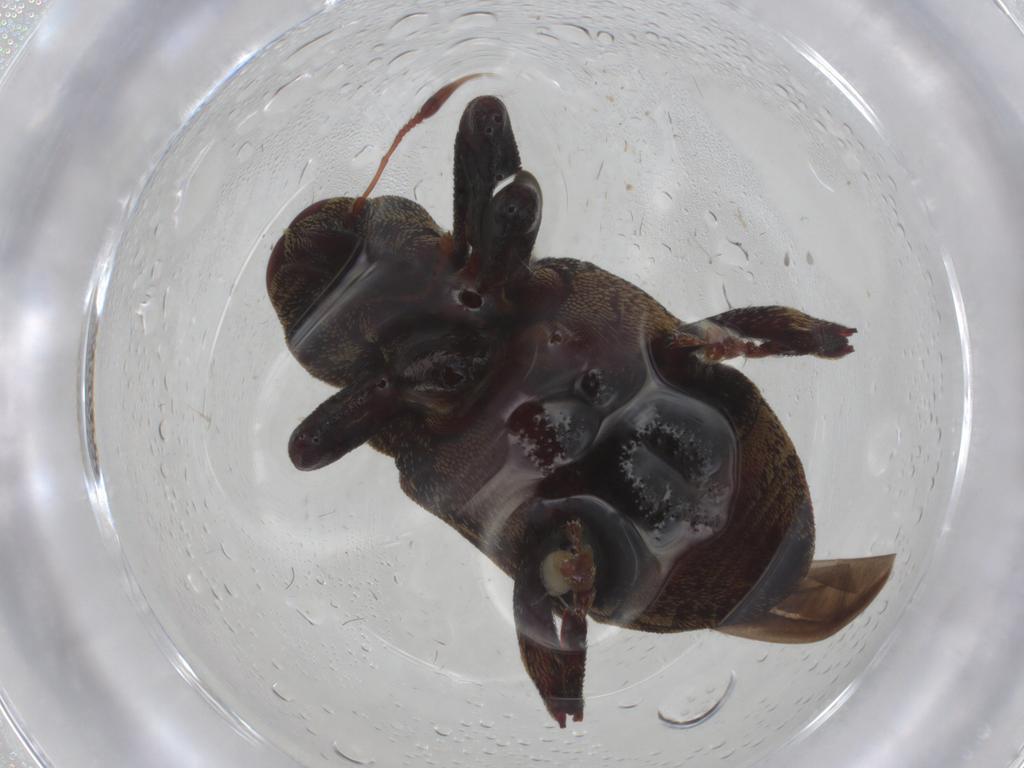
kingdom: Animalia
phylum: Arthropoda
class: Insecta
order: Coleoptera
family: Curculionidae
